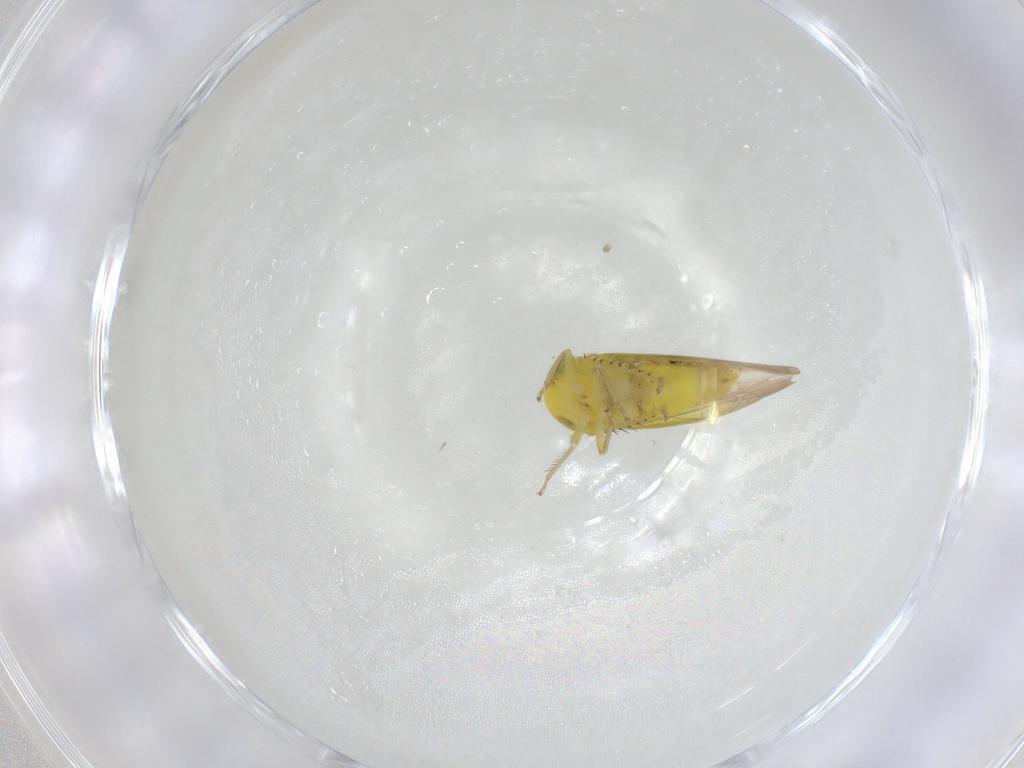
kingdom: Animalia
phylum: Arthropoda
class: Insecta
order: Hemiptera
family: Cicadellidae
